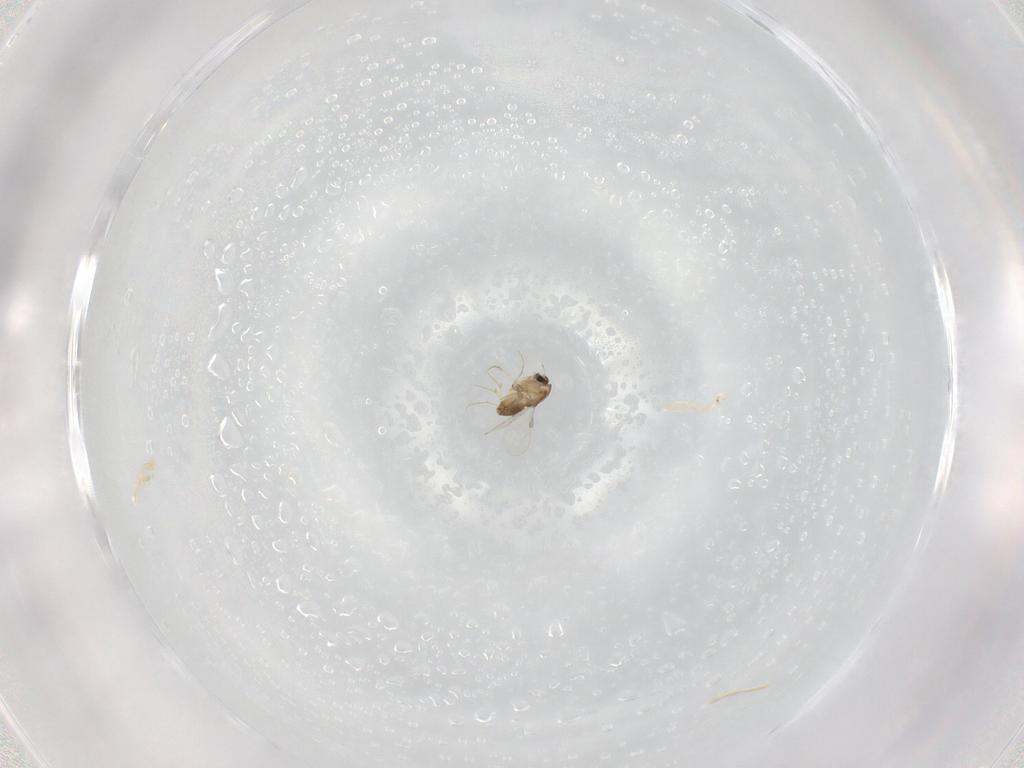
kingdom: Animalia
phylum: Arthropoda
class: Insecta
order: Diptera
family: Chironomidae
